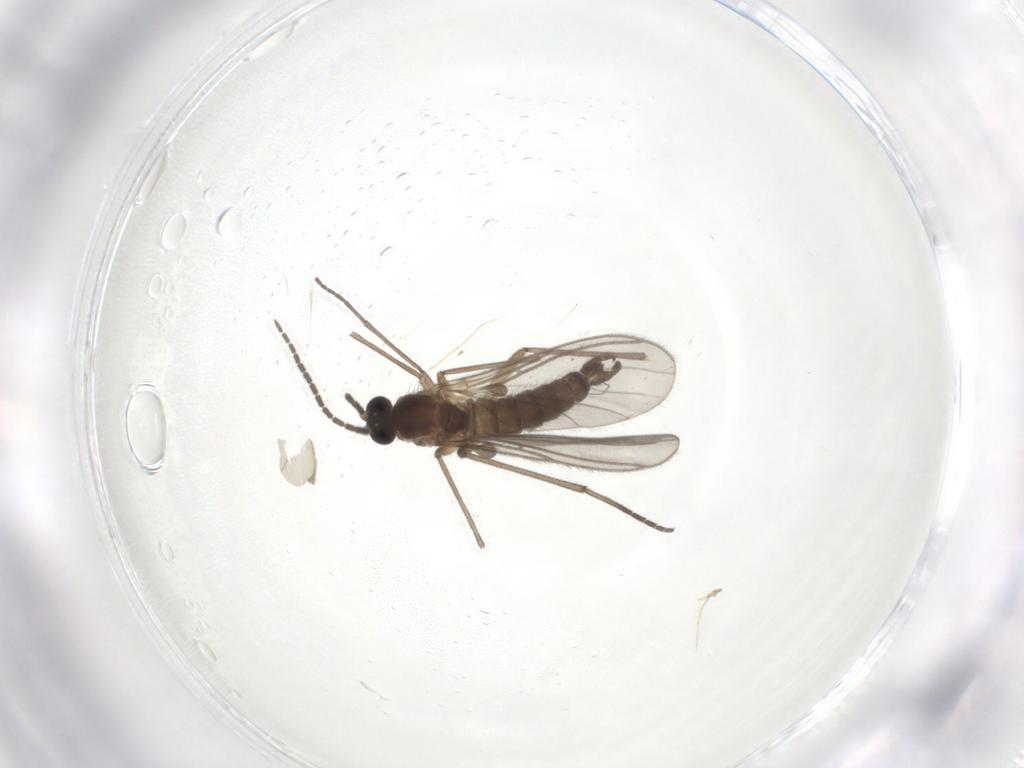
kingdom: Animalia
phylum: Arthropoda
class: Insecta
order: Diptera
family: Sciaridae
